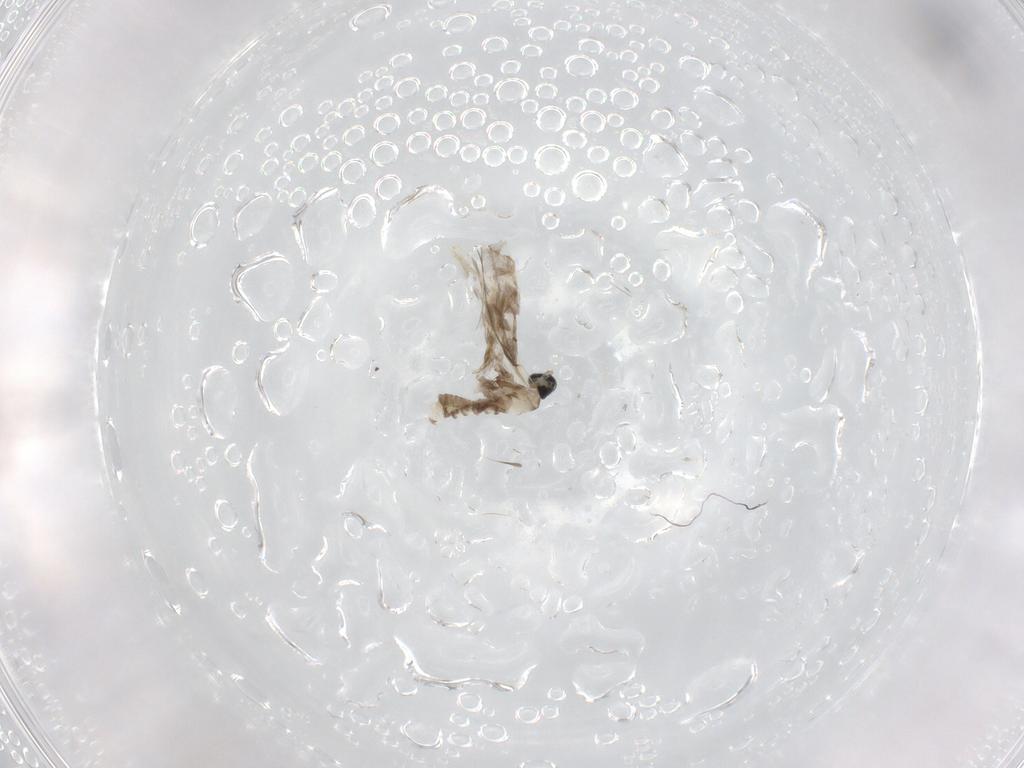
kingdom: Animalia
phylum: Arthropoda
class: Insecta
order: Diptera
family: Cecidomyiidae
